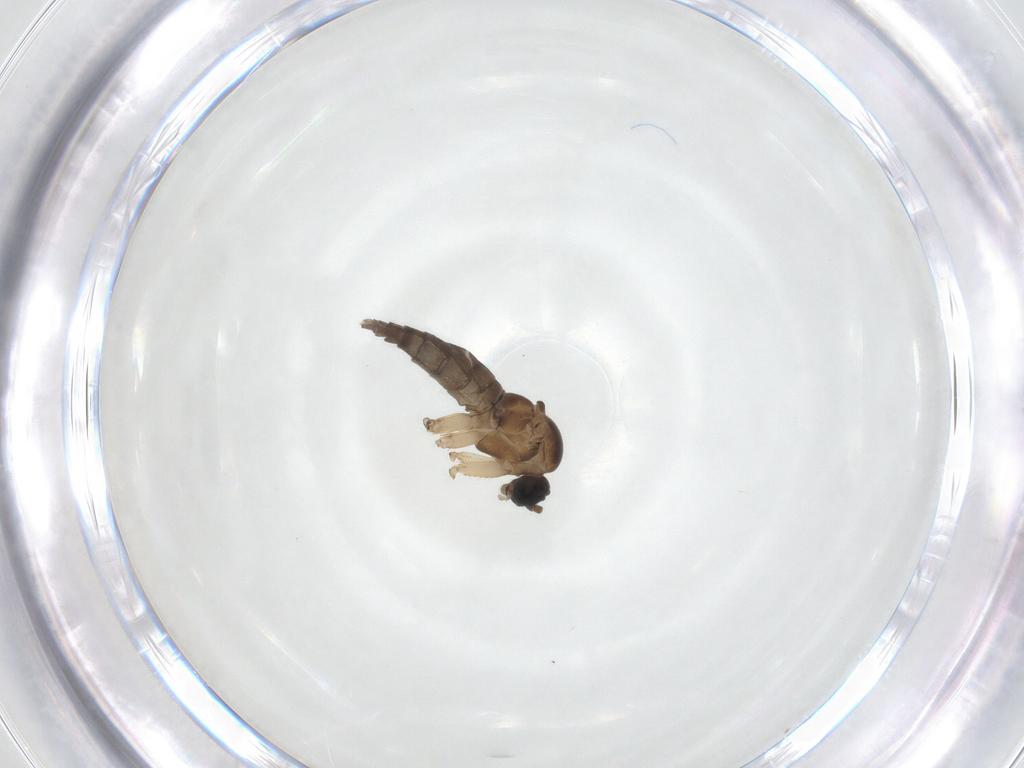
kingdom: Animalia
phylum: Arthropoda
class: Insecta
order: Diptera
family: Sciaridae
